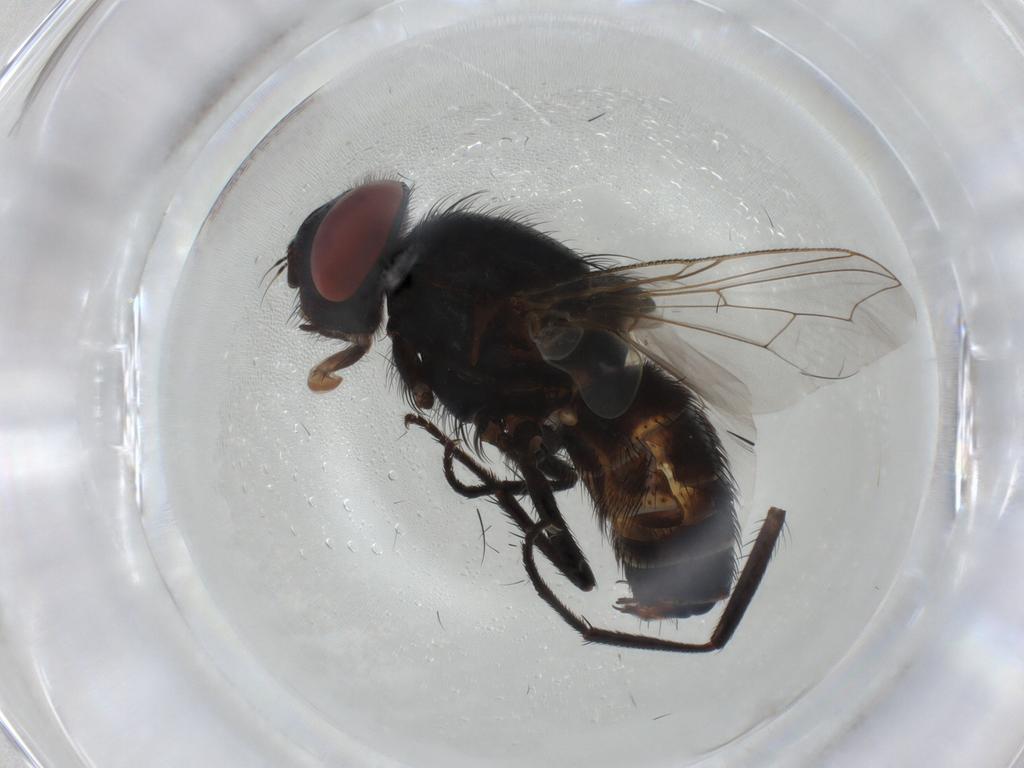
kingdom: Animalia
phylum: Arthropoda
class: Insecta
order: Diptera
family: Sarcophagidae
